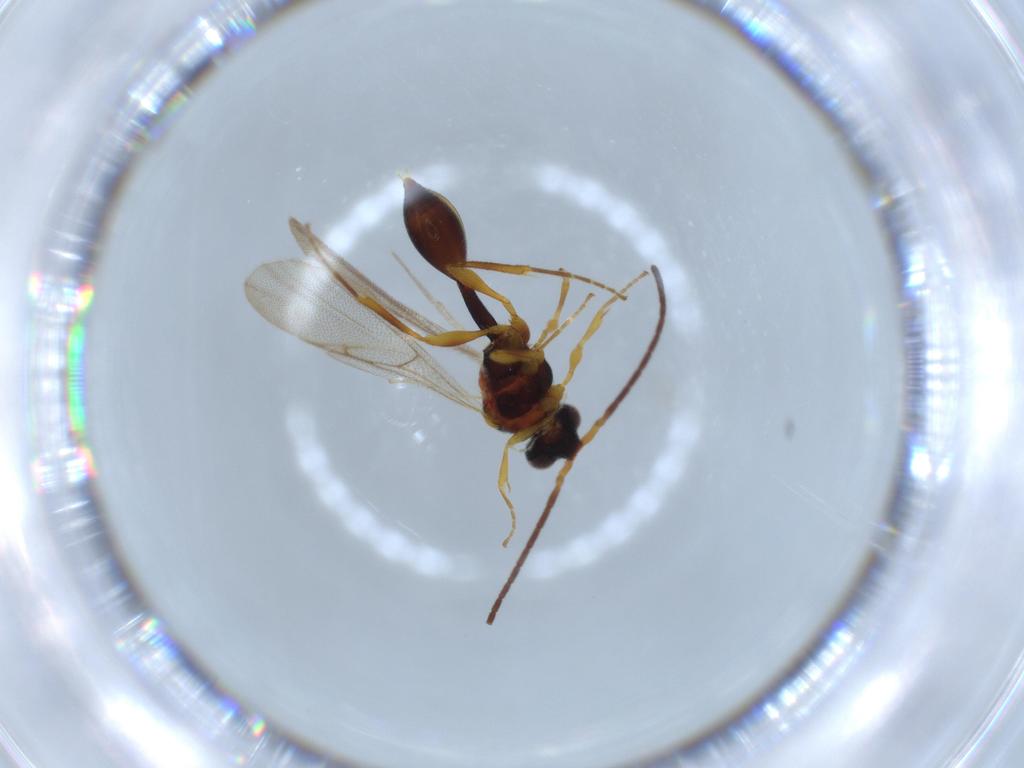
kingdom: Animalia
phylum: Arthropoda
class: Insecta
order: Hymenoptera
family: Diapriidae
